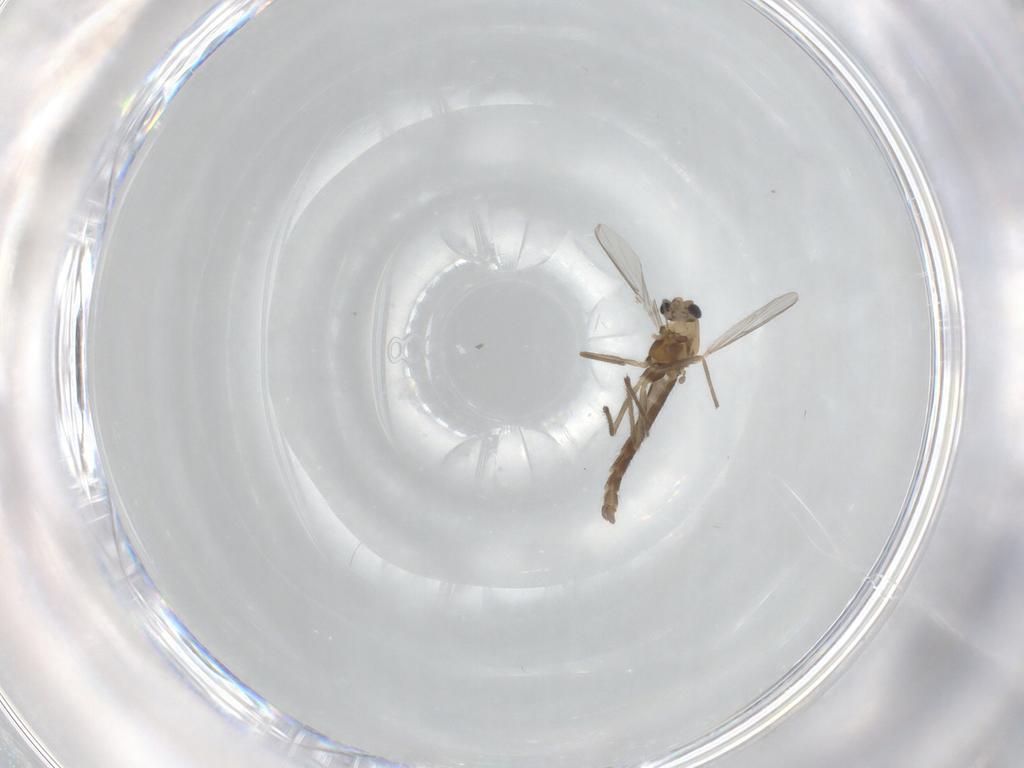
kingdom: Animalia
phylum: Arthropoda
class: Insecta
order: Diptera
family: Chironomidae
